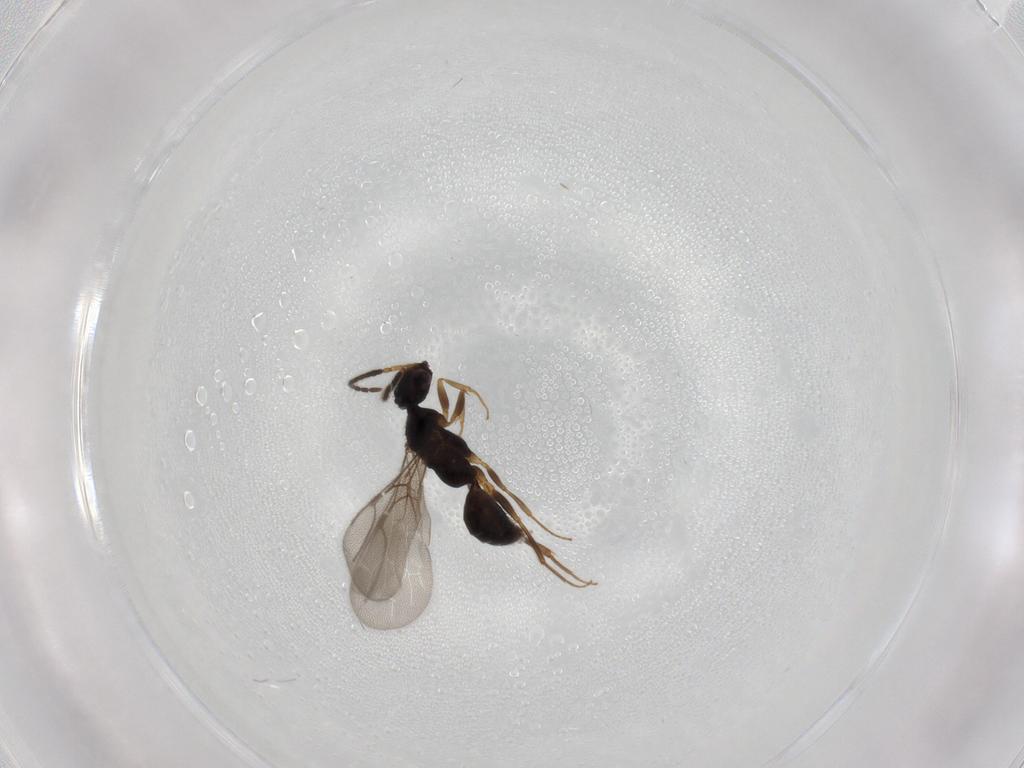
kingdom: Animalia
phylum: Arthropoda
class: Insecta
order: Hymenoptera
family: Bethylidae
